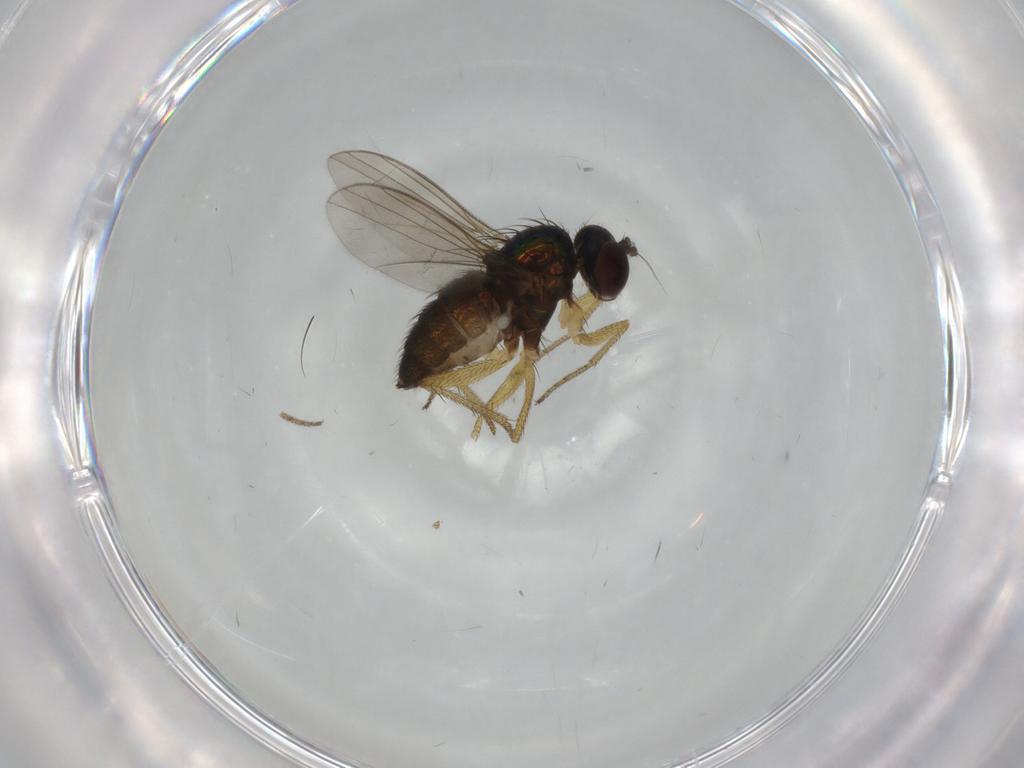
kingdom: Animalia
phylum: Arthropoda
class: Insecta
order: Diptera
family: Dolichopodidae
